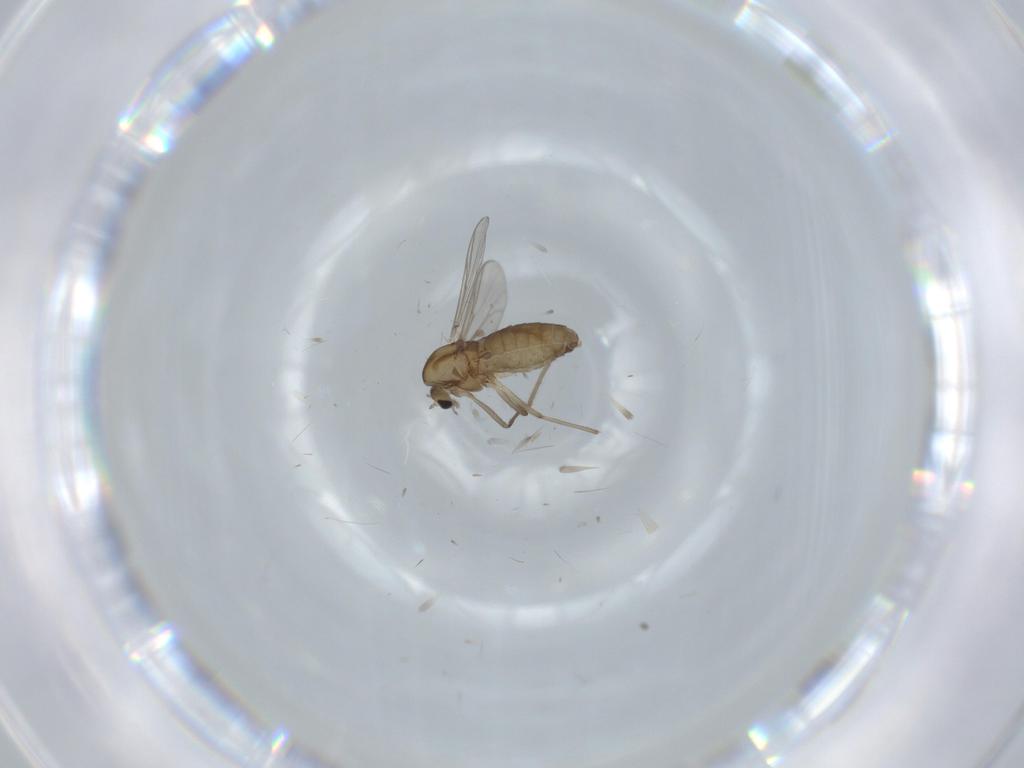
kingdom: Animalia
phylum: Arthropoda
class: Insecta
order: Diptera
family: Chironomidae
